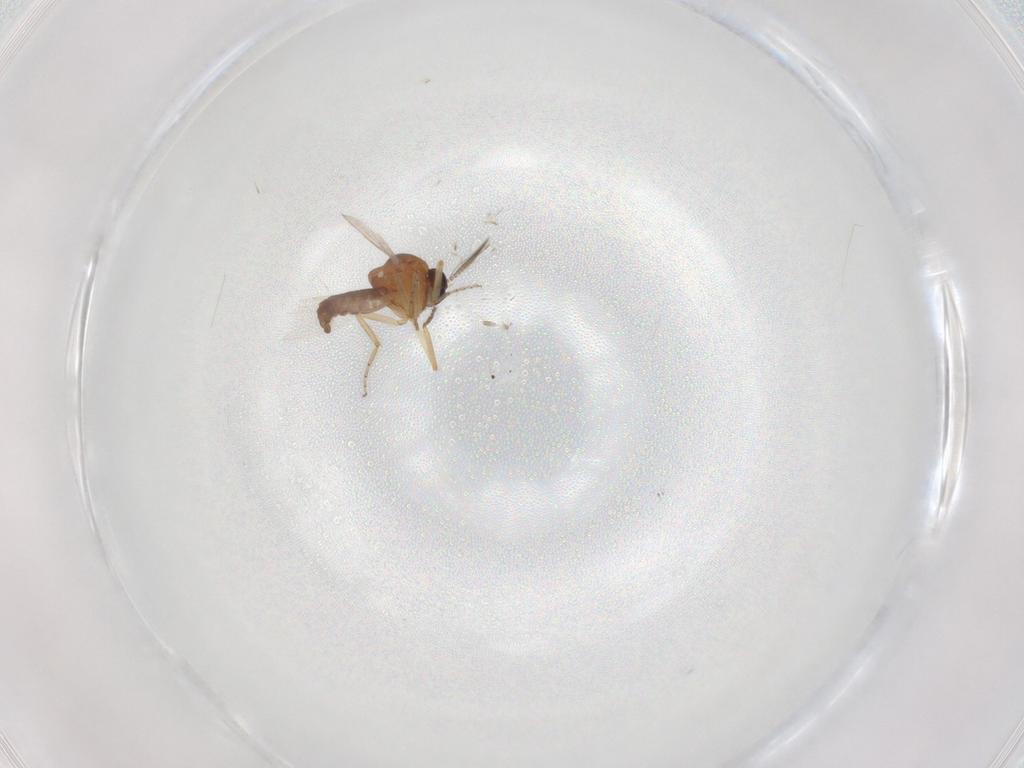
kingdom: Animalia
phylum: Arthropoda
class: Insecta
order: Diptera
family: Ceratopogonidae
